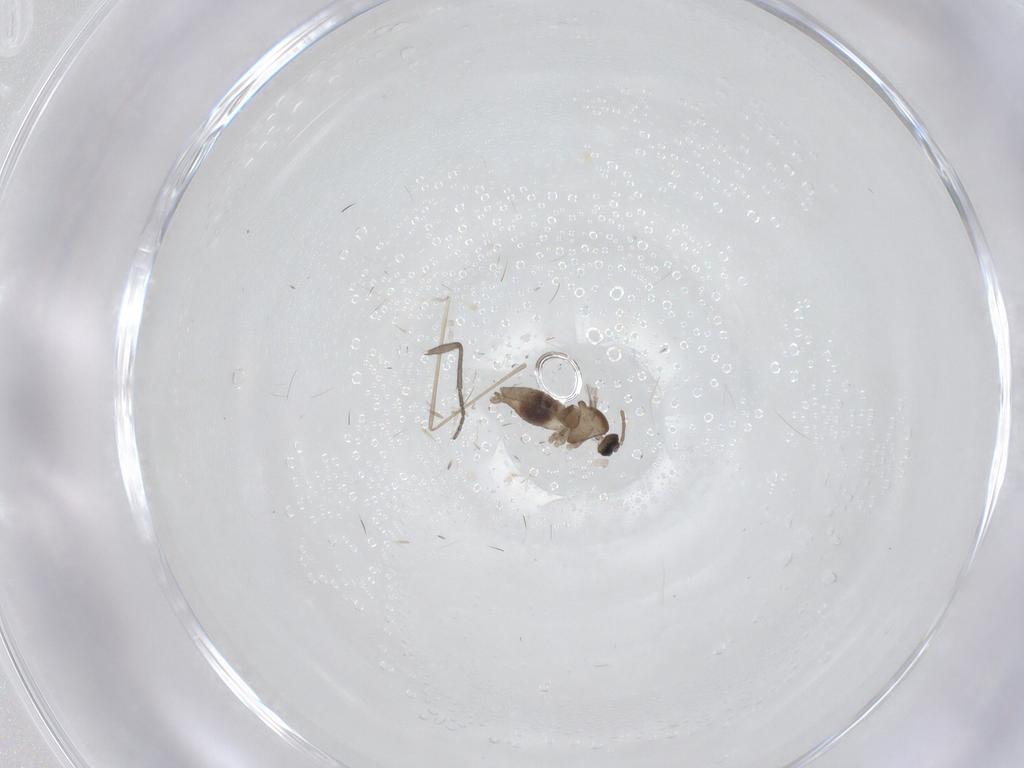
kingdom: Animalia
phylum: Arthropoda
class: Insecta
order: Diptera
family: Cecidomyiidae
